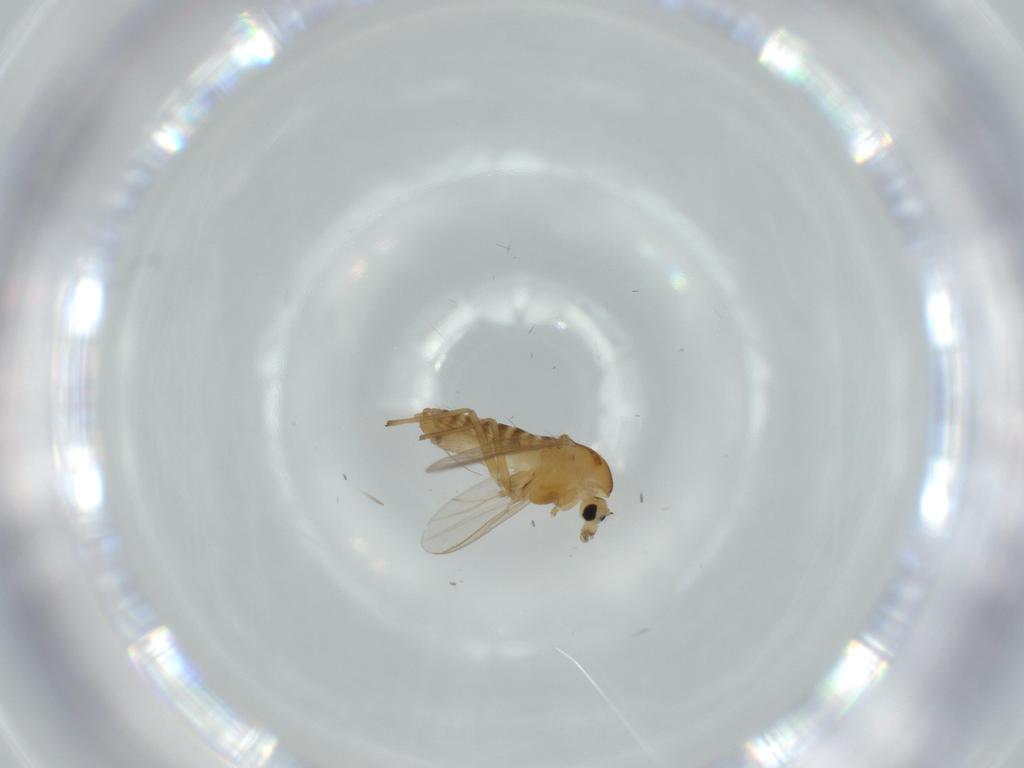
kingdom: Animalia
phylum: Arthropoda
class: Insecta
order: Diptera
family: Chironomidae
